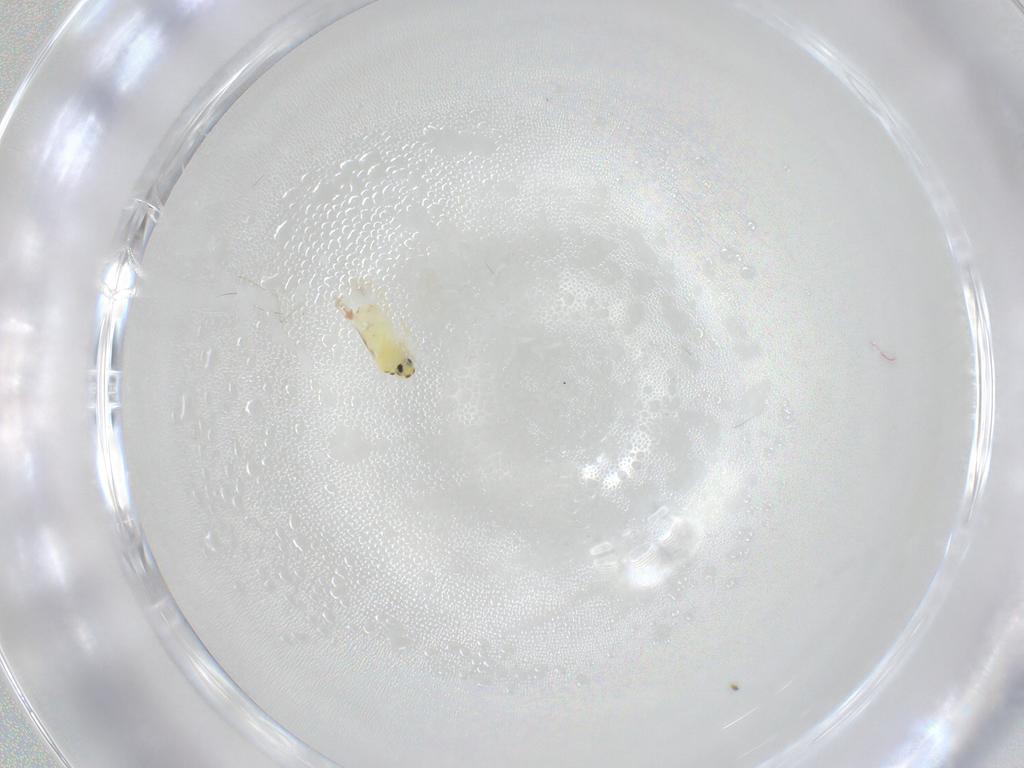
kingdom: Animalia
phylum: Arthropoda
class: Insecta
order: Hemiptera
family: Aleyrodidae
